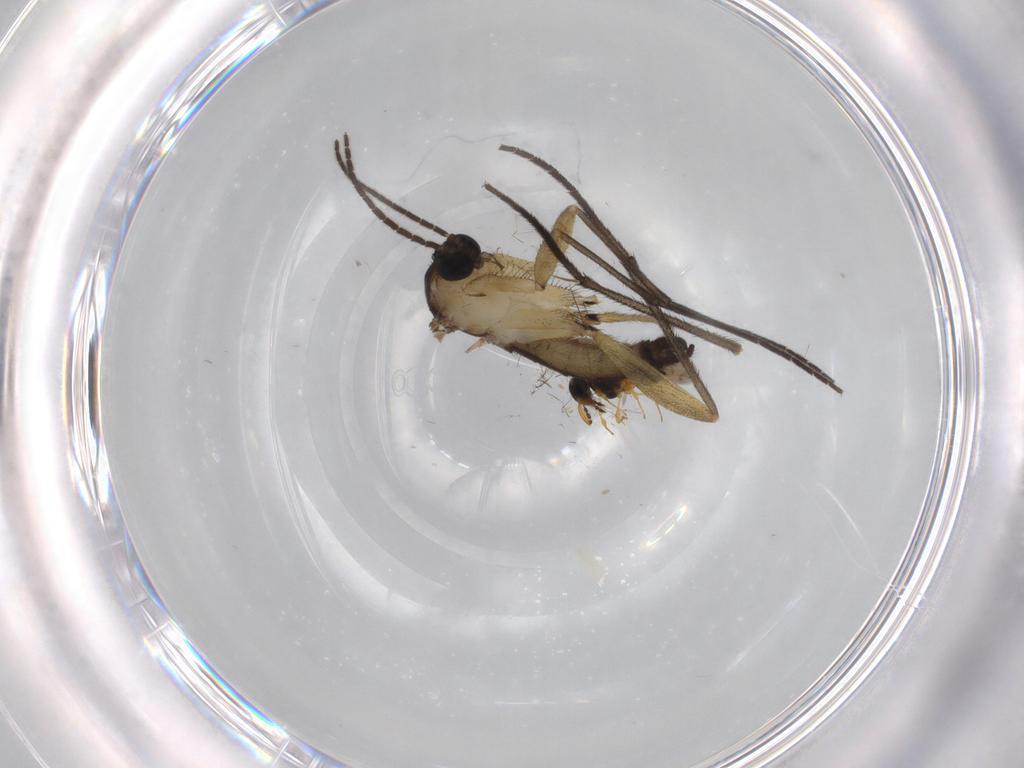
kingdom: Animalia
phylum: Arthropoda
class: Insecta
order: Diptera
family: Sciaridae
